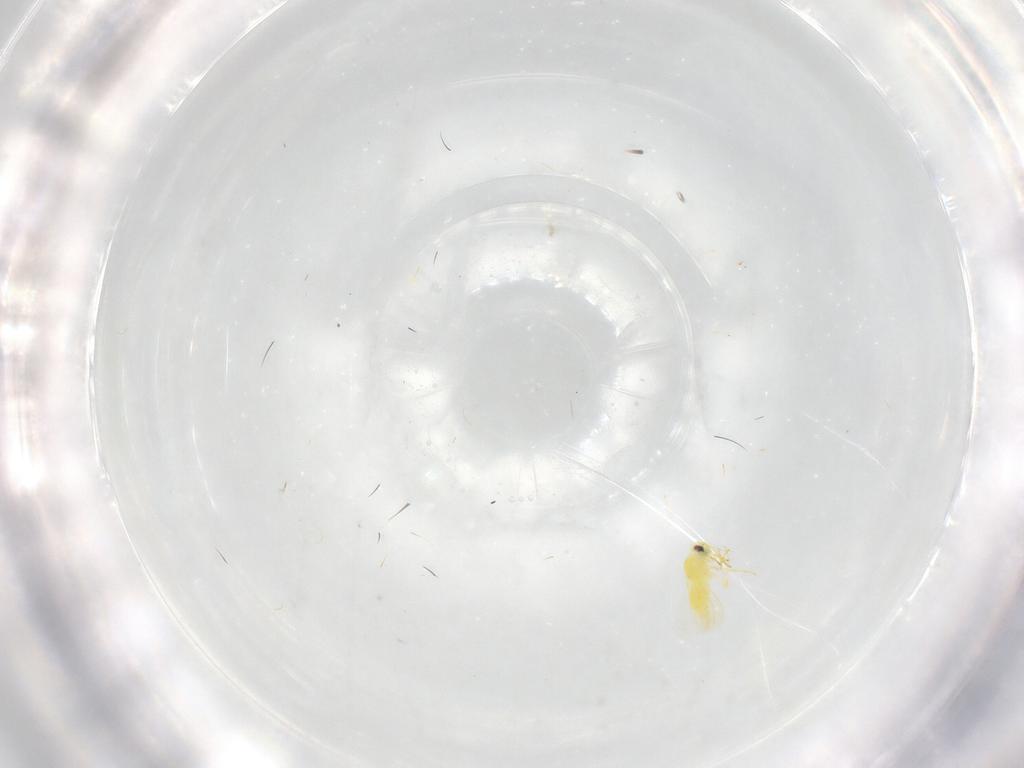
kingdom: Animalia
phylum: Arthropoda
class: Insecta
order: Hemiptera
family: Aleyrodidae
